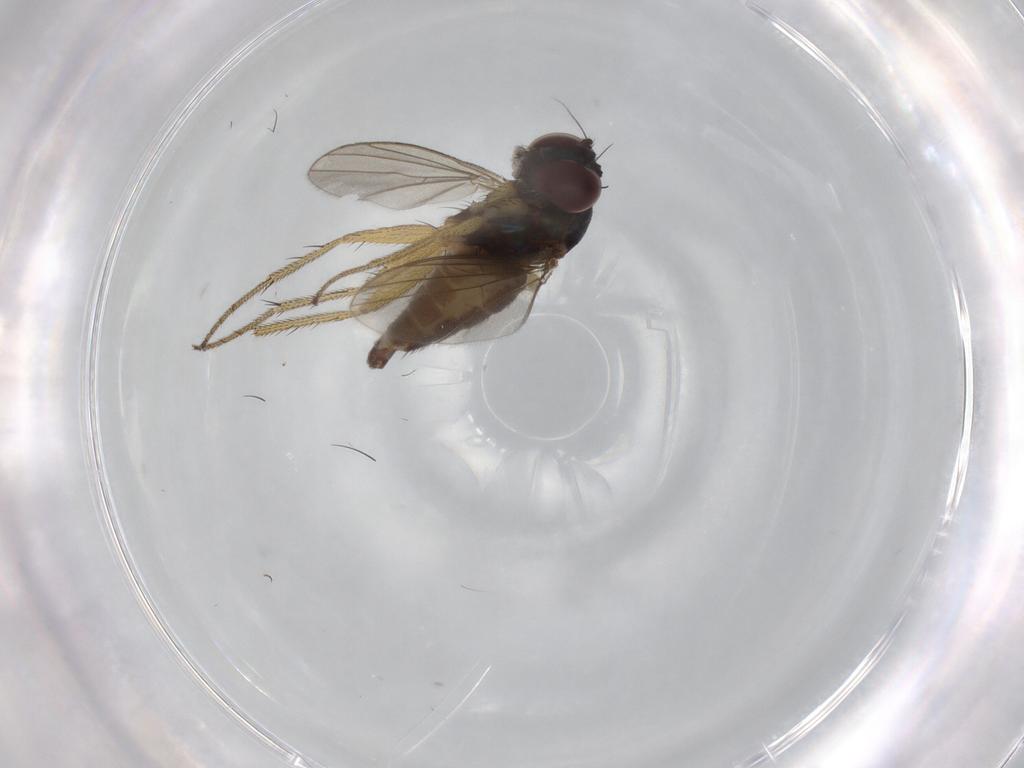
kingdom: Animalia
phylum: Arthropoda
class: Insecta
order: Diptera
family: Dolichopodidae
